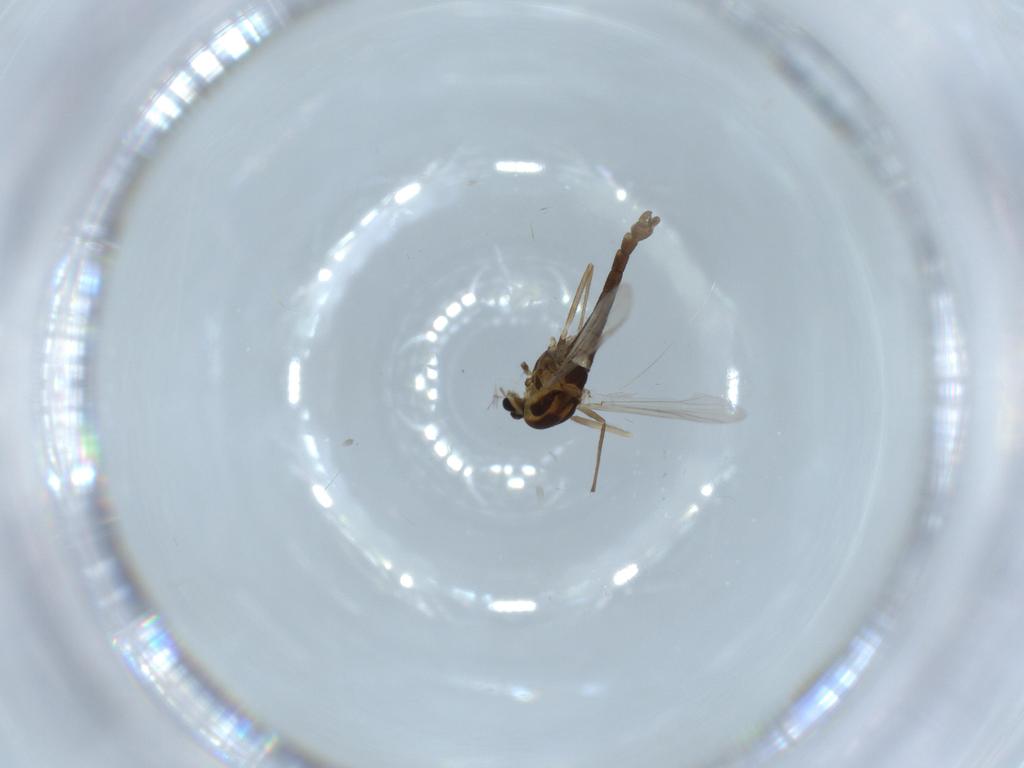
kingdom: Animalia
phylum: Arthropoda
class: Insecta
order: Diptera
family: Chironomidae
